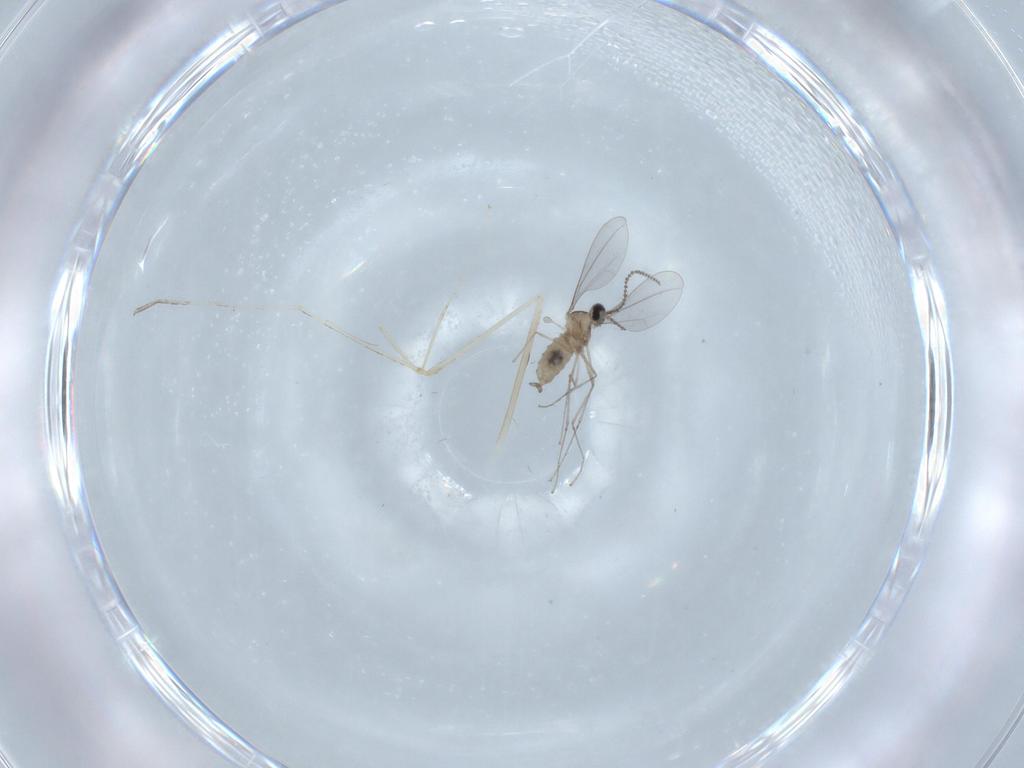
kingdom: Animalia
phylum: Arthropoda
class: Insecta
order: Diptera
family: Cecidomyiidae
